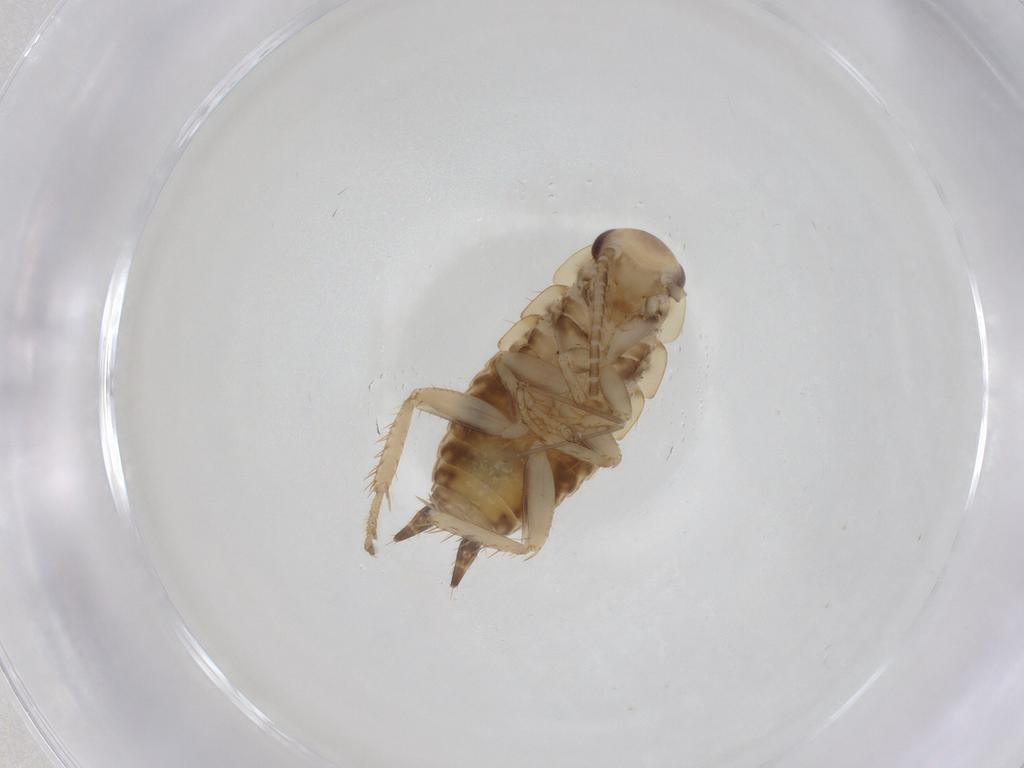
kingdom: Animalia
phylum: Arthropoda
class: Insecta
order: Blattodea
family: Ectobiidae
